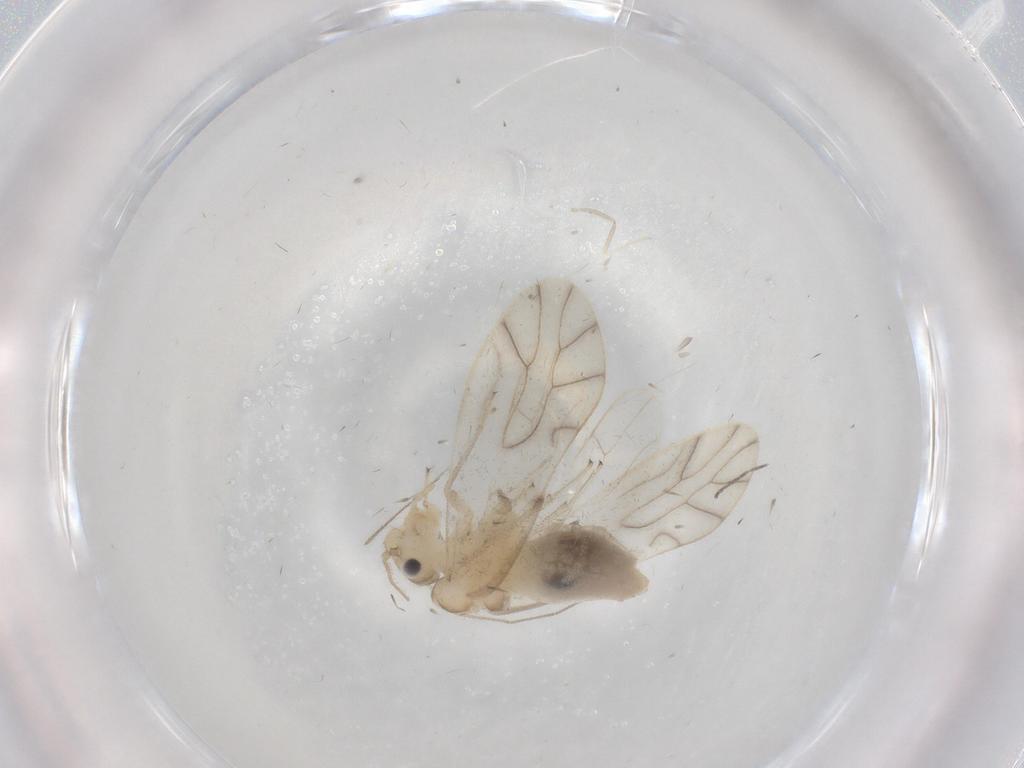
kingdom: Animalia
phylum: Arthropoda
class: Insecta
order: Psocodea
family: Caeciliusidae
